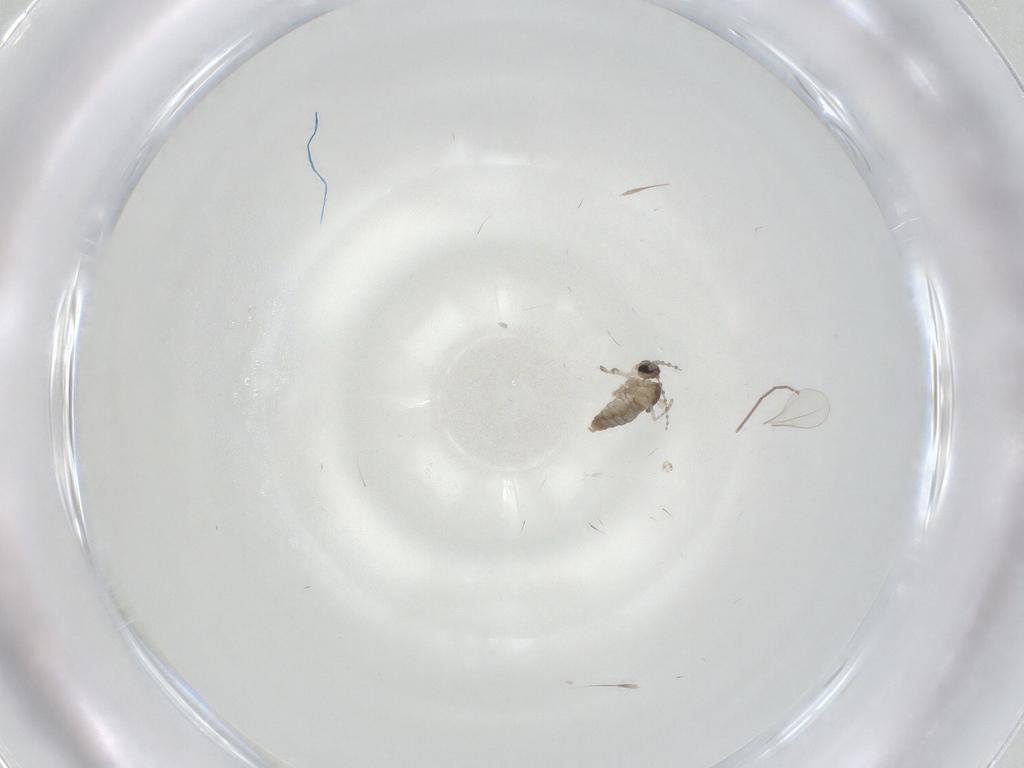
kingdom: Animalia
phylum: Arthropoda
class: Insecta
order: Diptera
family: Cecidomyiidae
